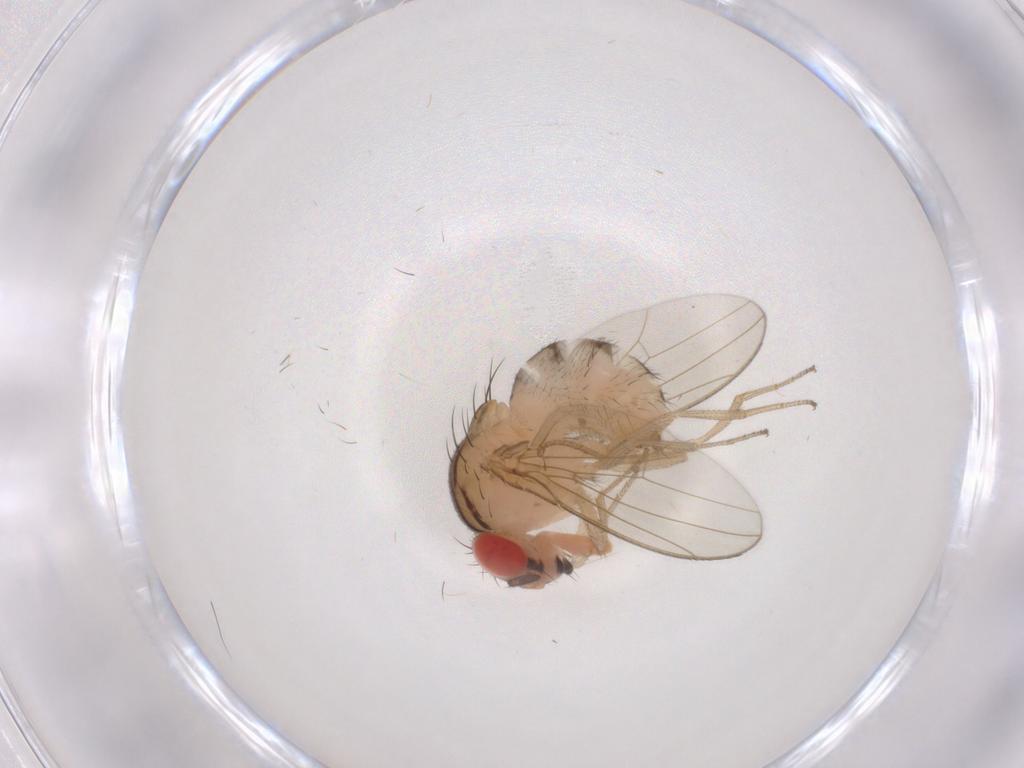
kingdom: Animalia
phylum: Arthropoda
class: Insecta
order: Diptera
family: Drosophilidae
